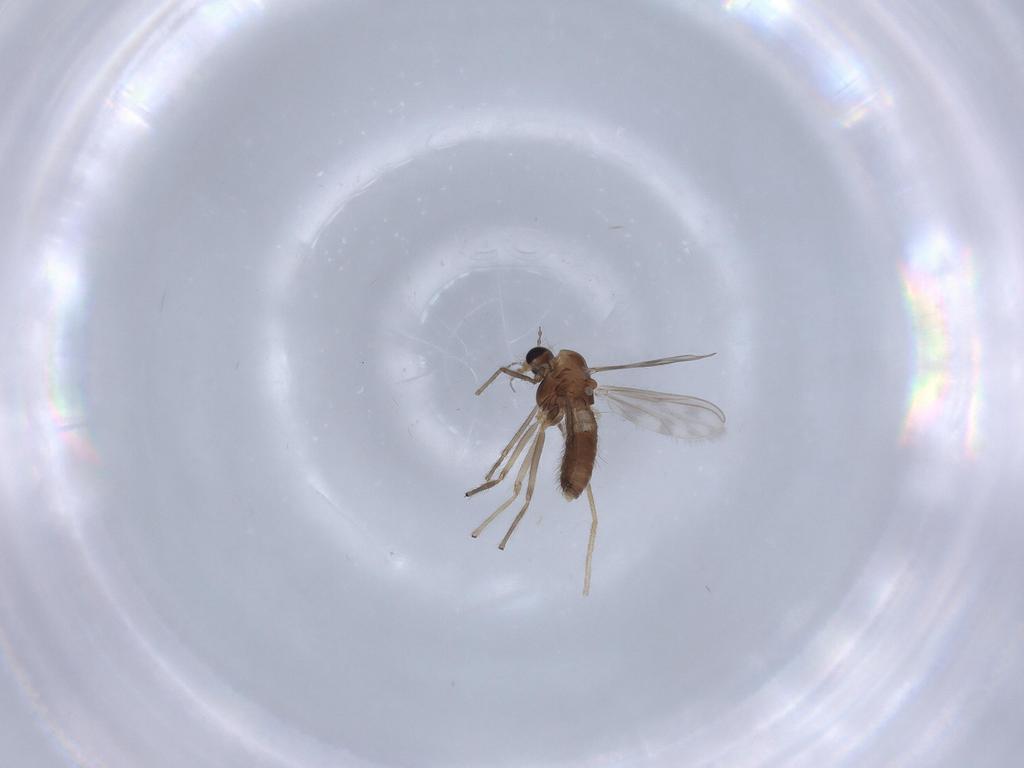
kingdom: Animalia
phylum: Arthropoda
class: Insecta
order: Diptera
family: Chironomidae
